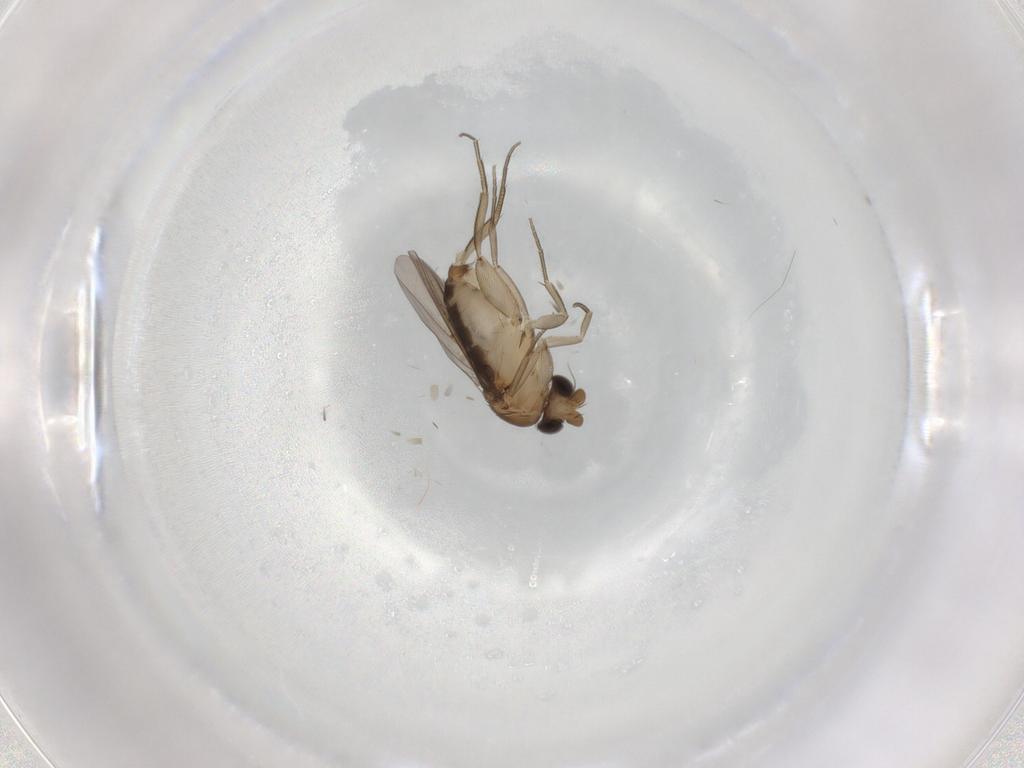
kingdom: Animalia
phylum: Arthropoda
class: Insecta
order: Diptera
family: Phoridae
